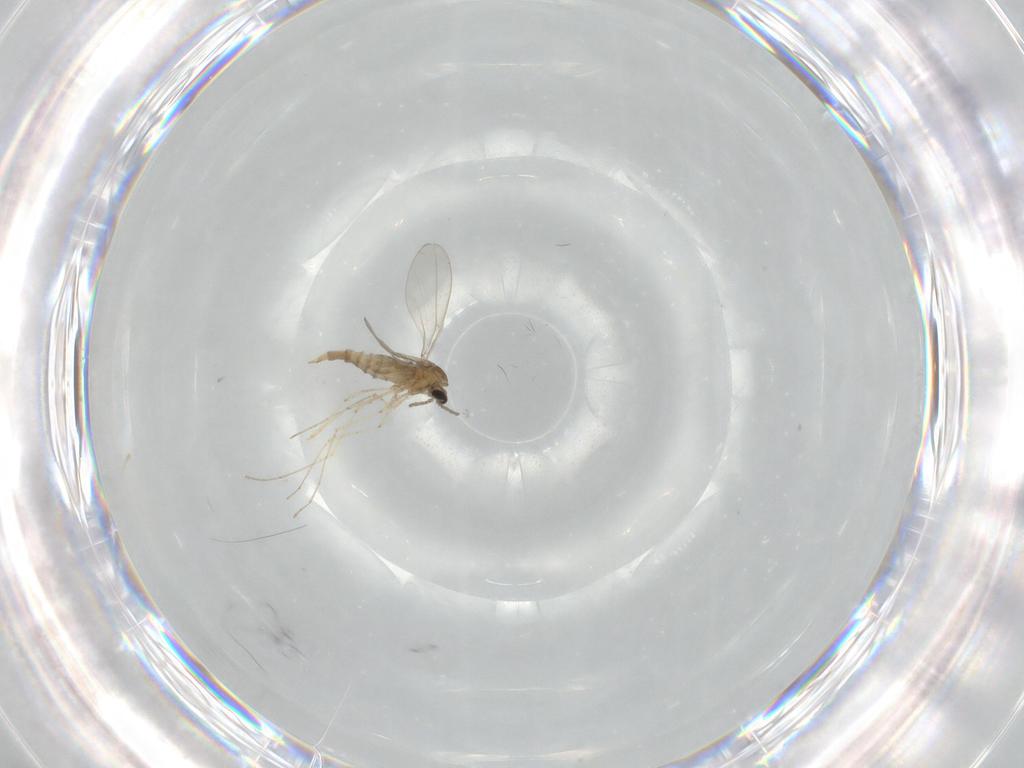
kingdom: Animalia
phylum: Arthropoda
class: Insecta
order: Diptera
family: Cecidomyiidae
